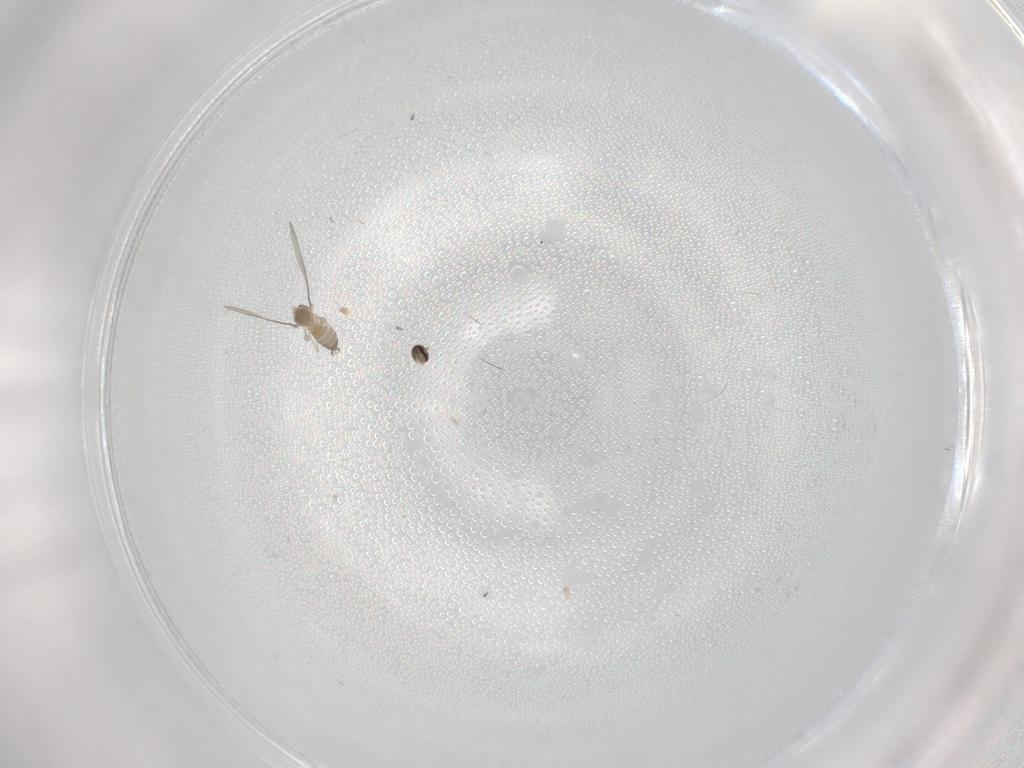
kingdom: Animalia
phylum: Arthropoda
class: Insecta
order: Diptera
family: Cecidomyiidae
